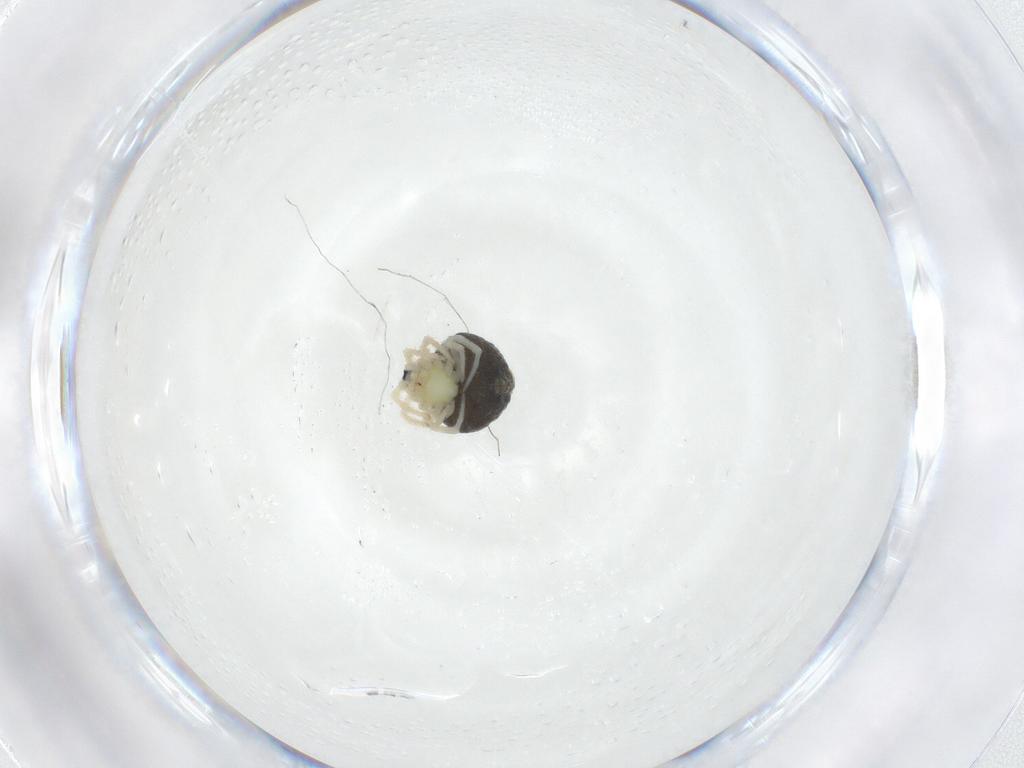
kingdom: Animalia
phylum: Arthropoda
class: Arachnida
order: Araneae
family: Theridiidae
